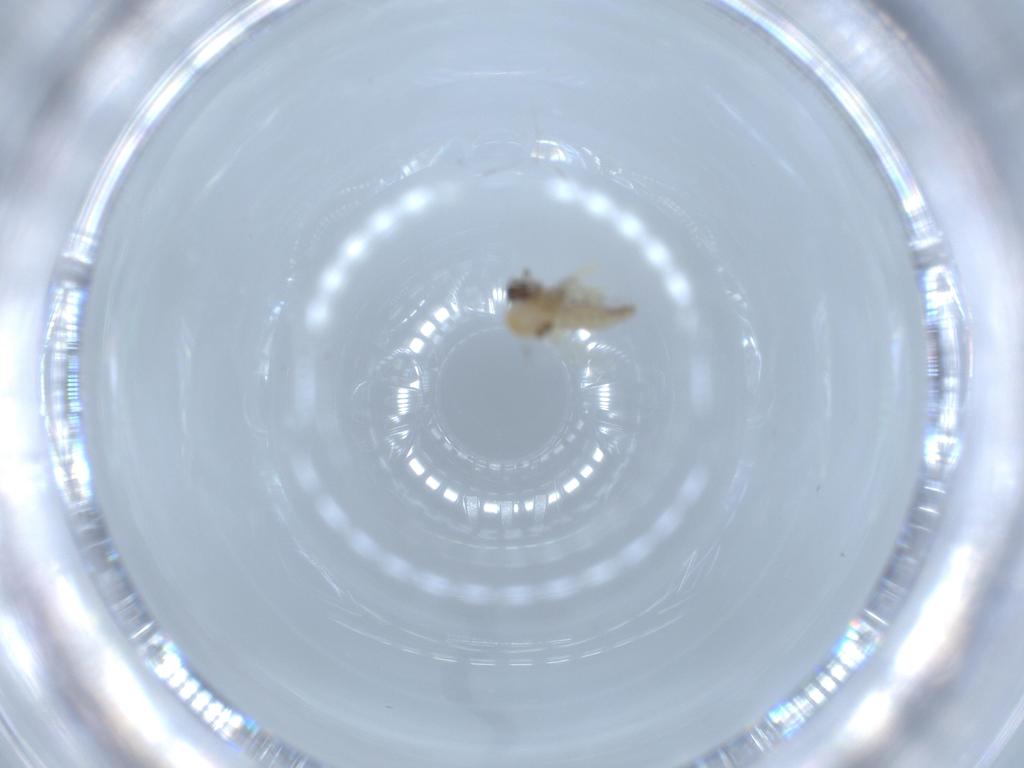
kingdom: Animalia
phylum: Arthropoda
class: Insecta
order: Diptera
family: Ceratopogonidae
